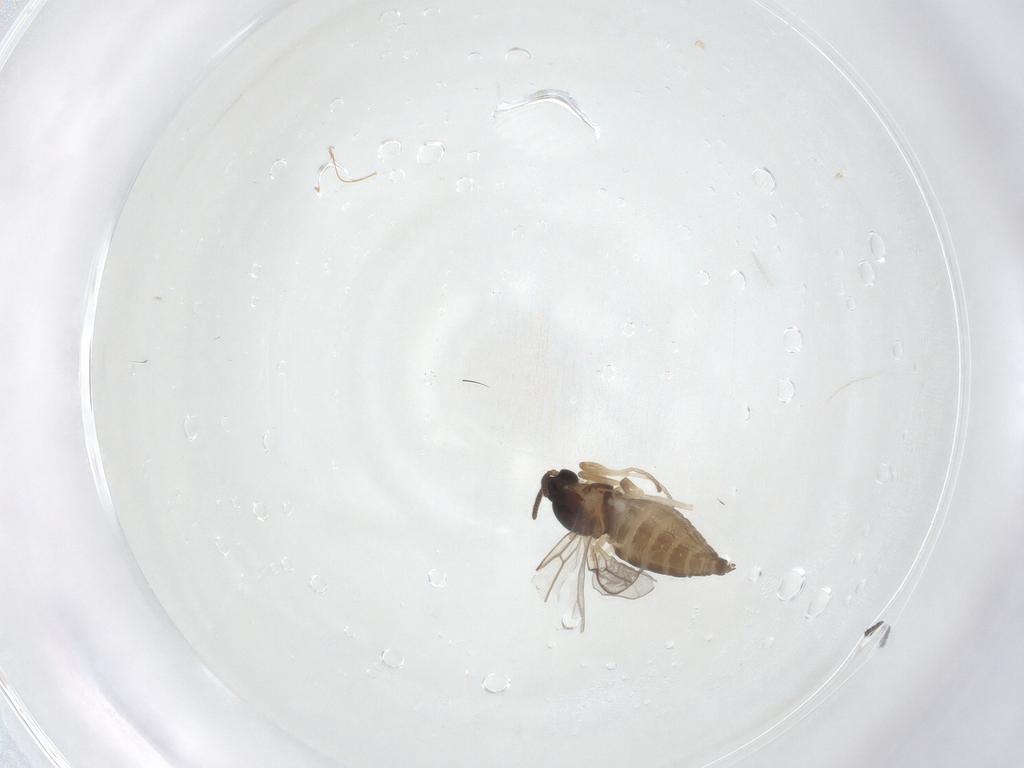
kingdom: Animalia
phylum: Arthropoda
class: Insecta
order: Diptera
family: Cecidomyiidae
